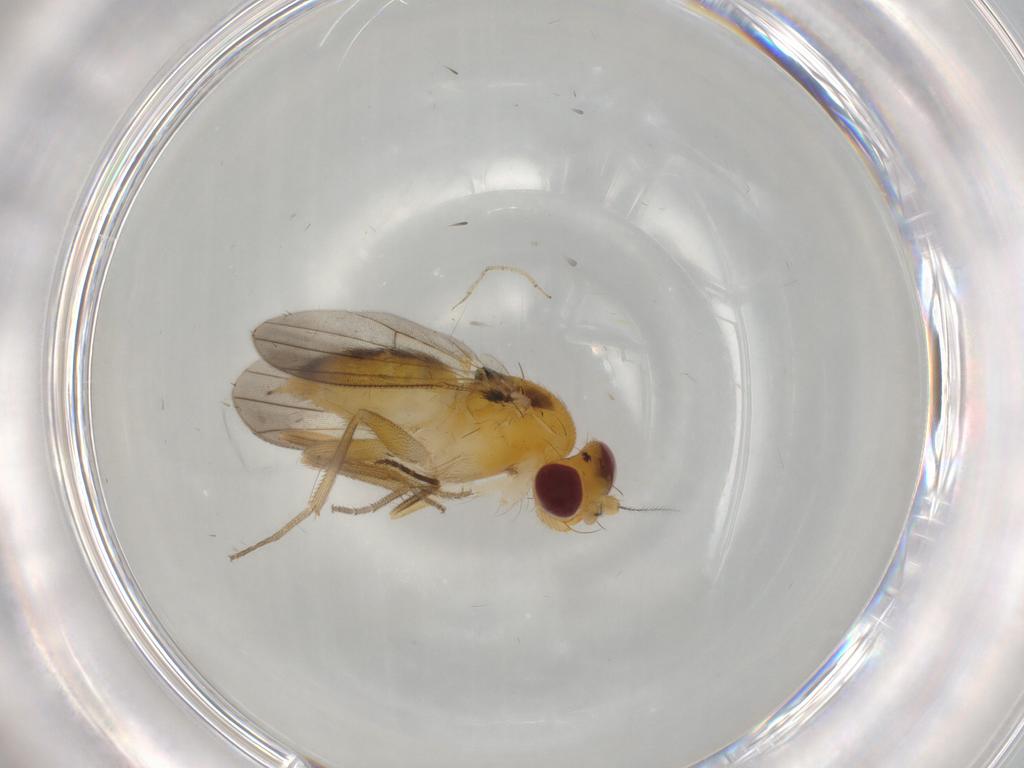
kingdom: Animalia
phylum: Arthropoda
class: Insecta
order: Diptera
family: Clusiidae
